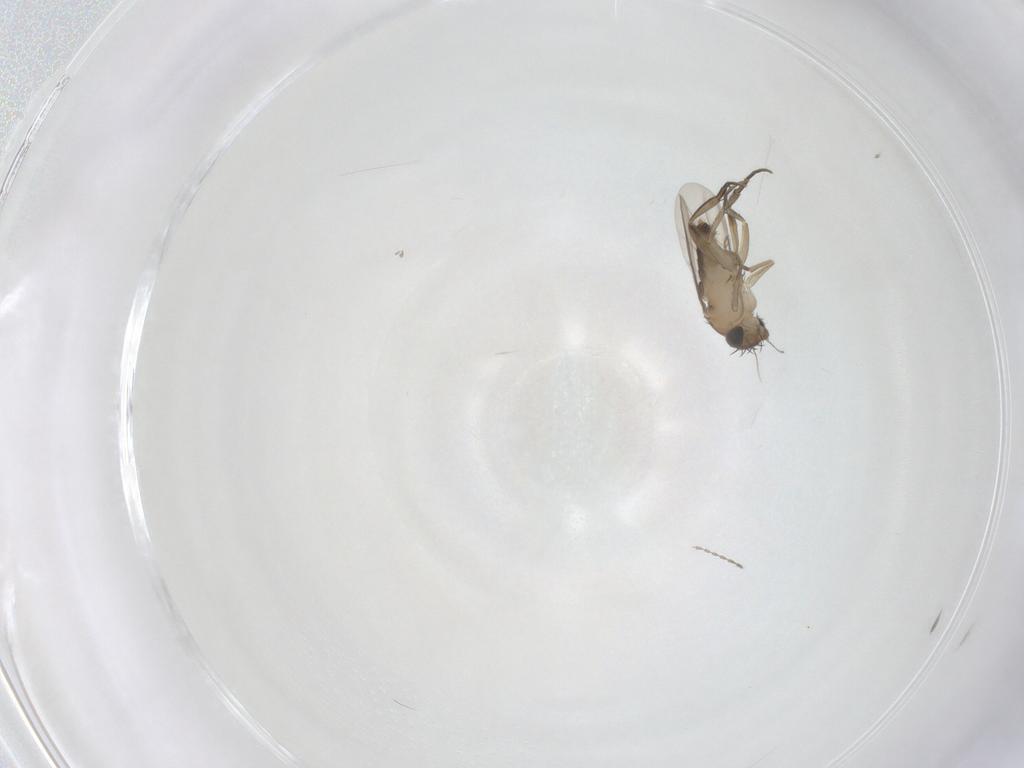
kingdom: Animalia
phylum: Arthropoda
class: Insecta
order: Diptera
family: Phoridae
